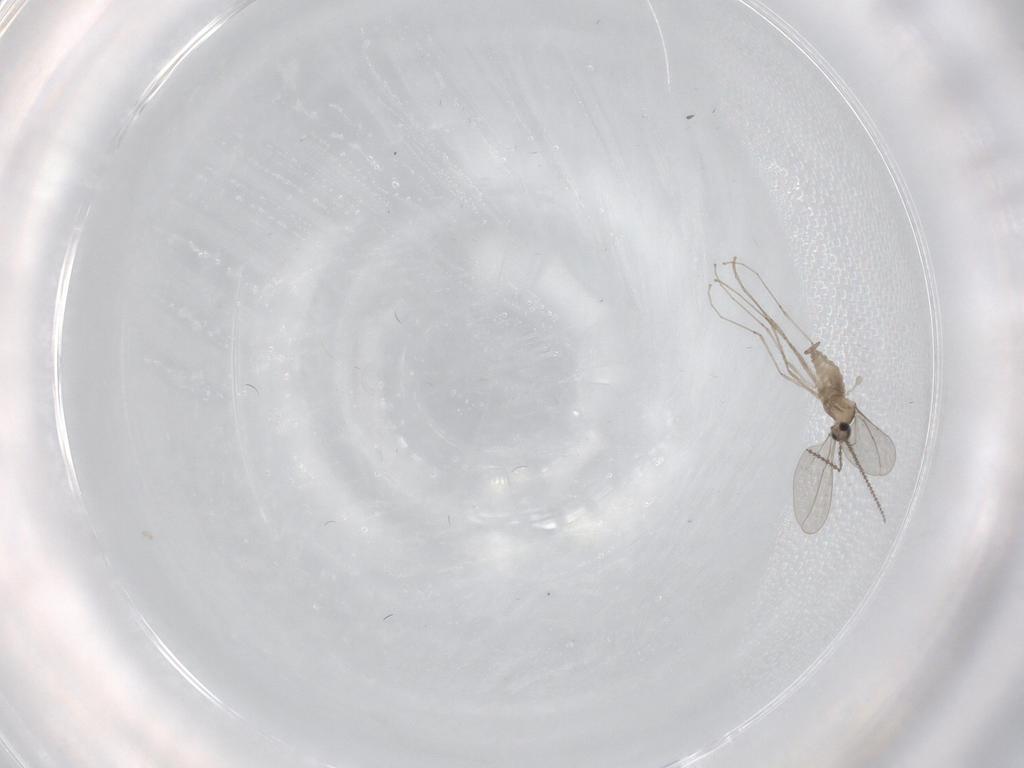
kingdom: Animalia
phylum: Arthropoda
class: Insecta
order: Diptera
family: Cecidomyiidae
